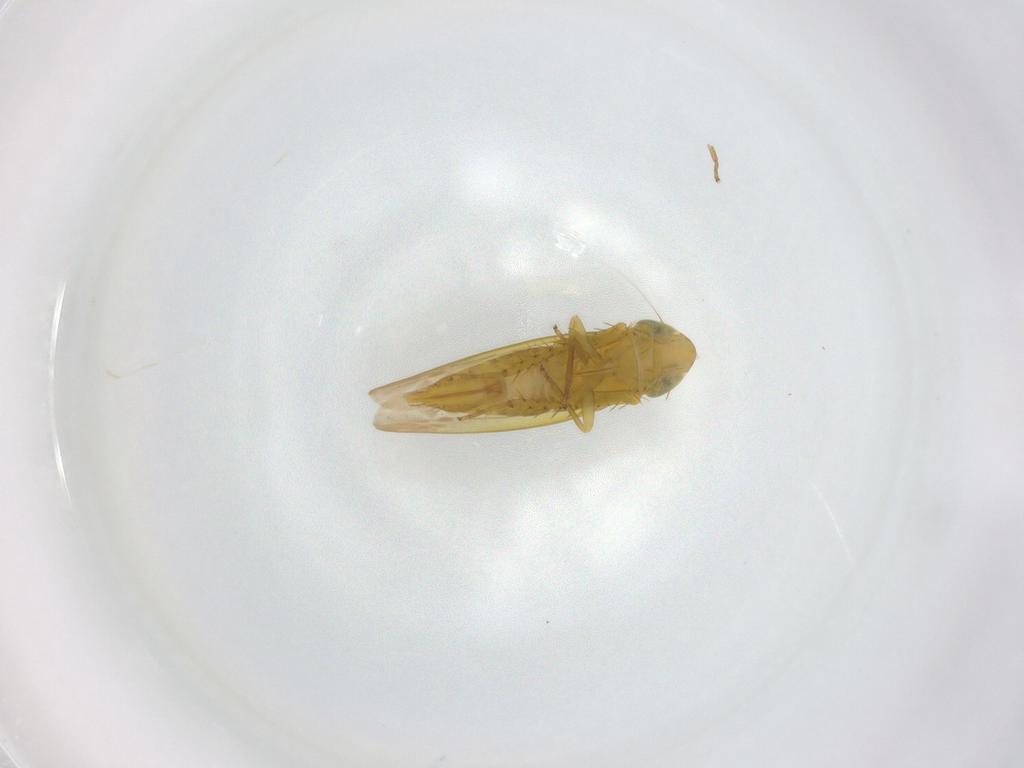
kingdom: Animalia
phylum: Arthropoda
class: Insecta
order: Hemiptera
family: Cicadellidae
